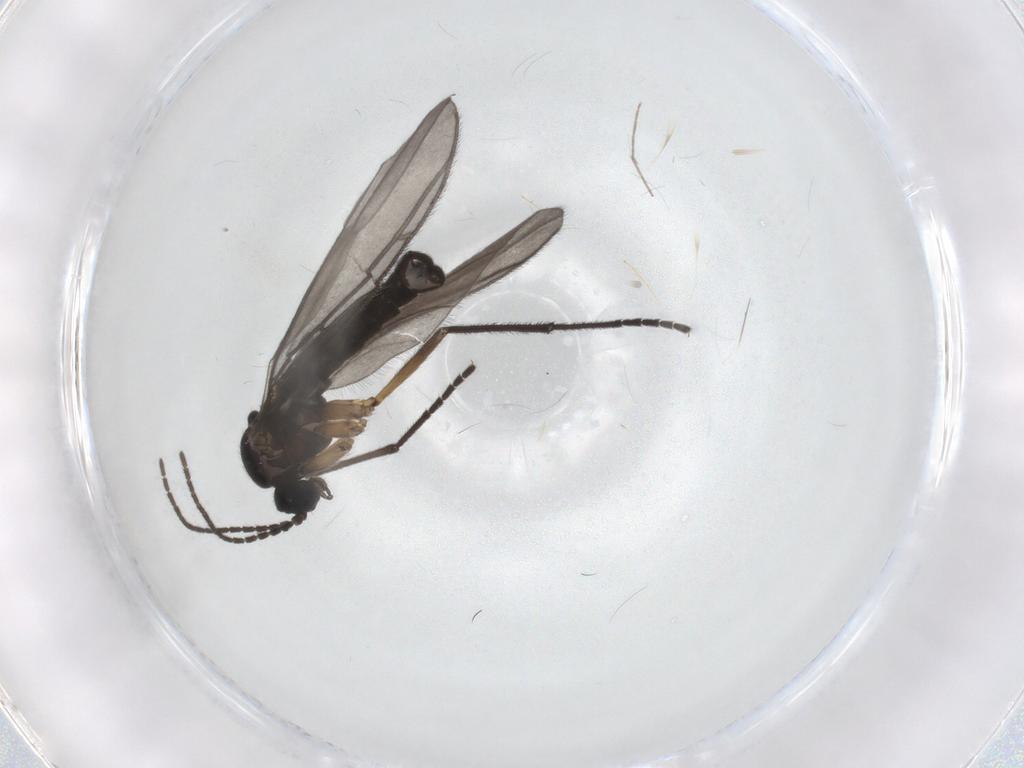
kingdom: Animalia
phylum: Arthropoda
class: Insecta
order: Diptera
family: Sciaridae
